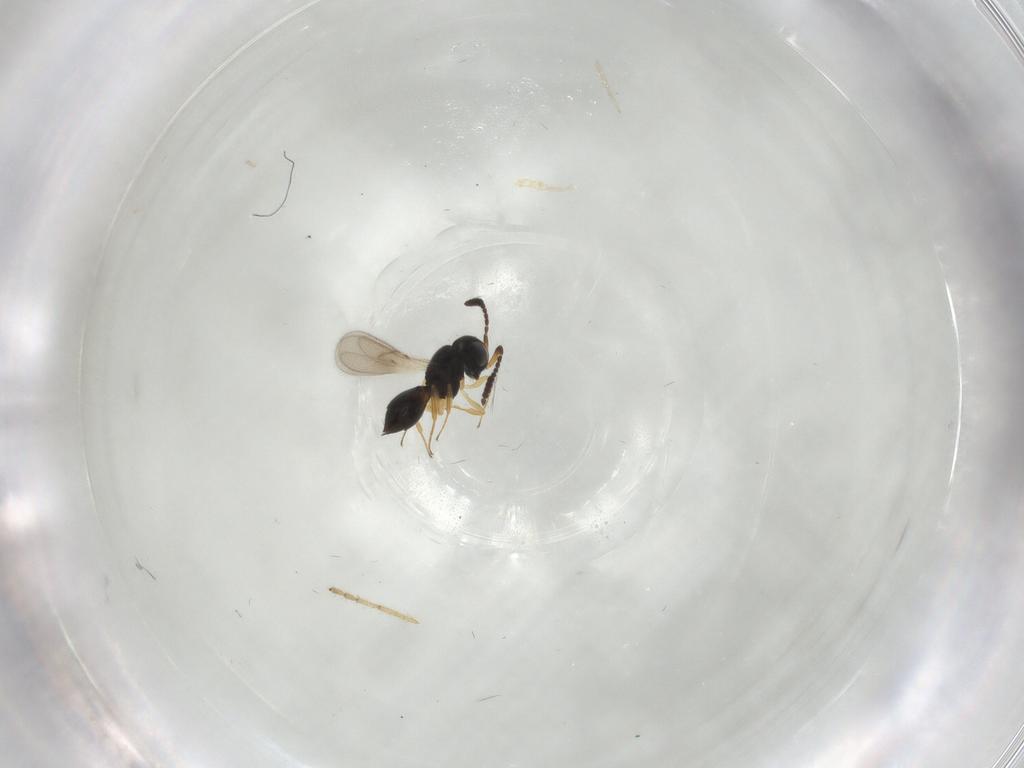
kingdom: Animalia
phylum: Arthropoda
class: Insecta
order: Hymenoptera
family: Scelionidae
